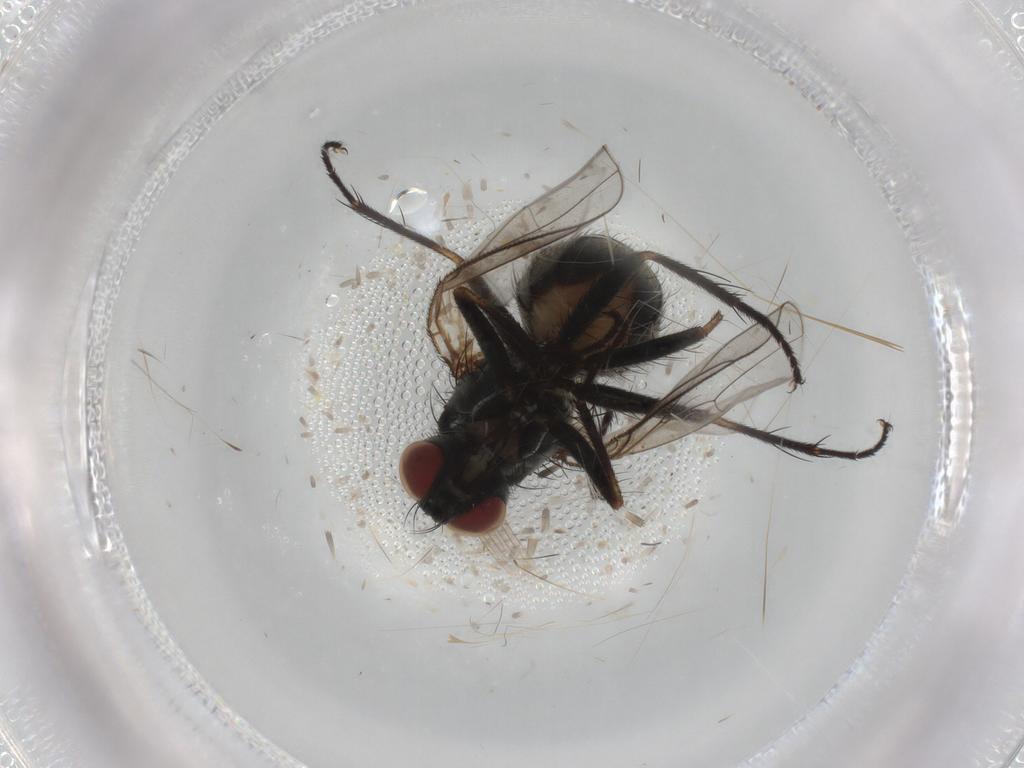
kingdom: Animalia
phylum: Arthropoda
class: Insecta
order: Diptera
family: Muscidae
